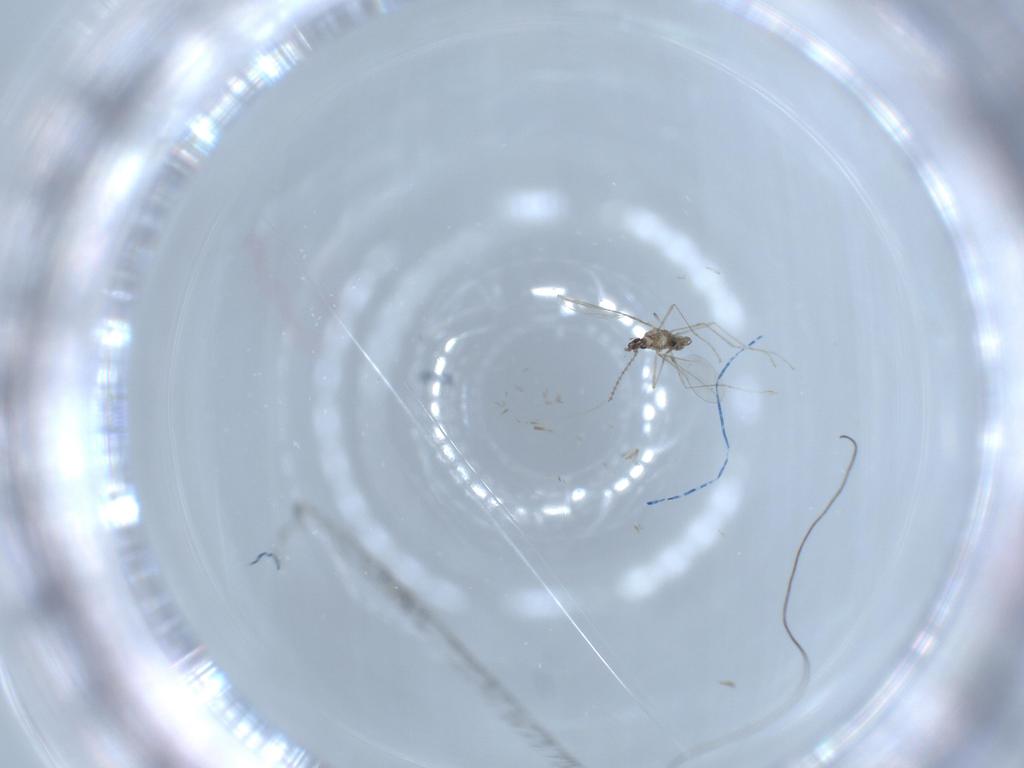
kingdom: Animalia
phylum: Arthropoda
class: Insecta
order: Diptera
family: Cecidomyiidae
